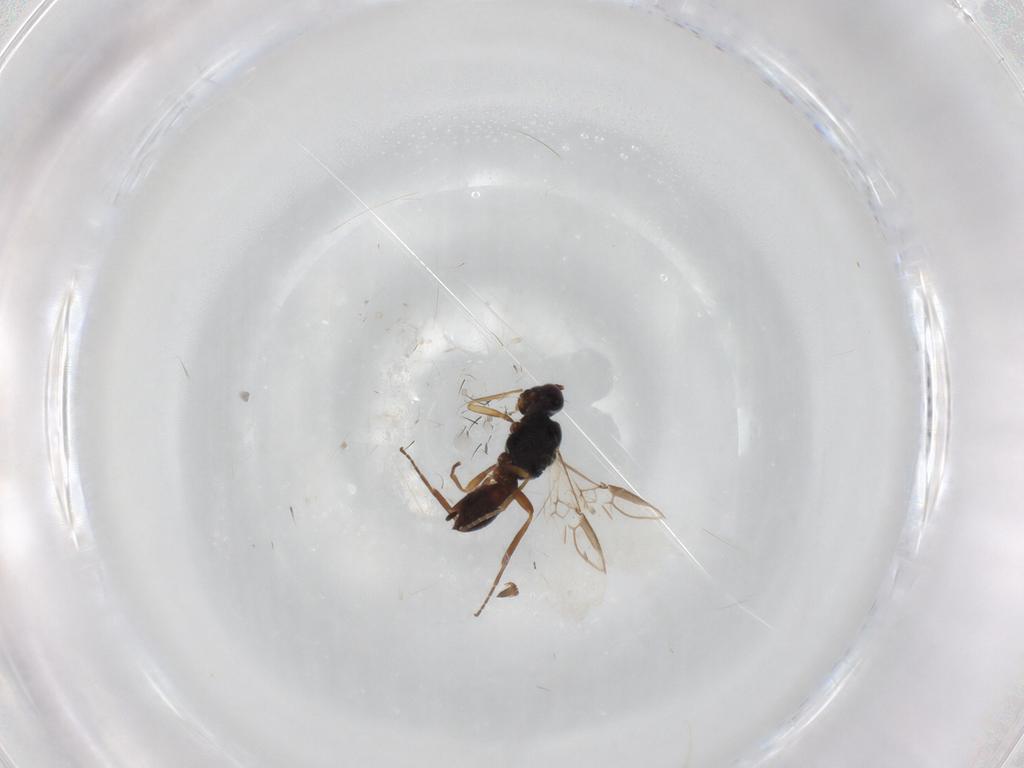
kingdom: Animalia
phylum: Arthropoda
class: Insecta
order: Hymenoptera
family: Braconidae
